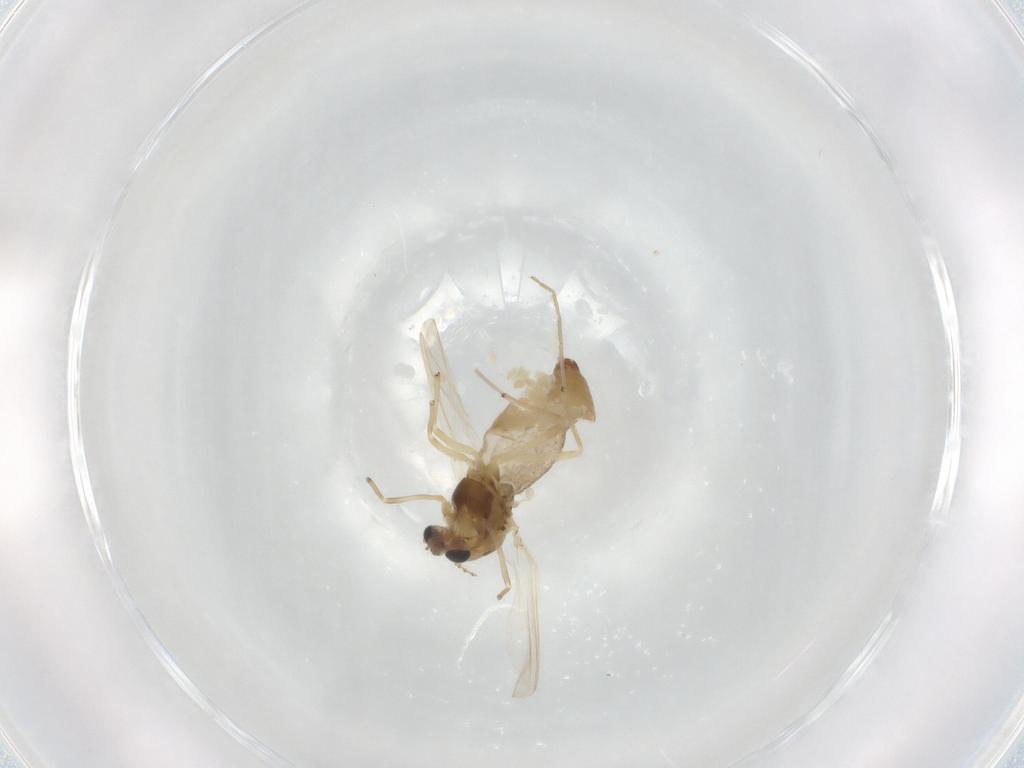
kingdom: Animalia
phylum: Arthropoda
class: Insecta
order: Diptera
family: Chironomidae
